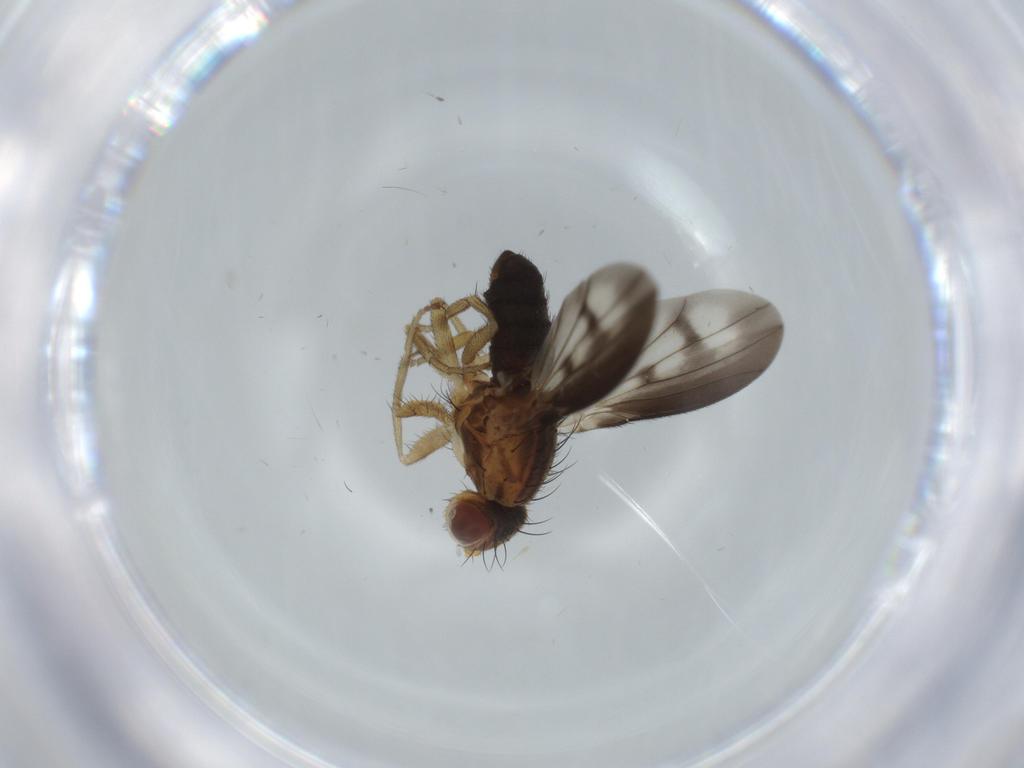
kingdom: Animalia
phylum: Arthropoda
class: Insecta
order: Diptera
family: Heleomyzidae
